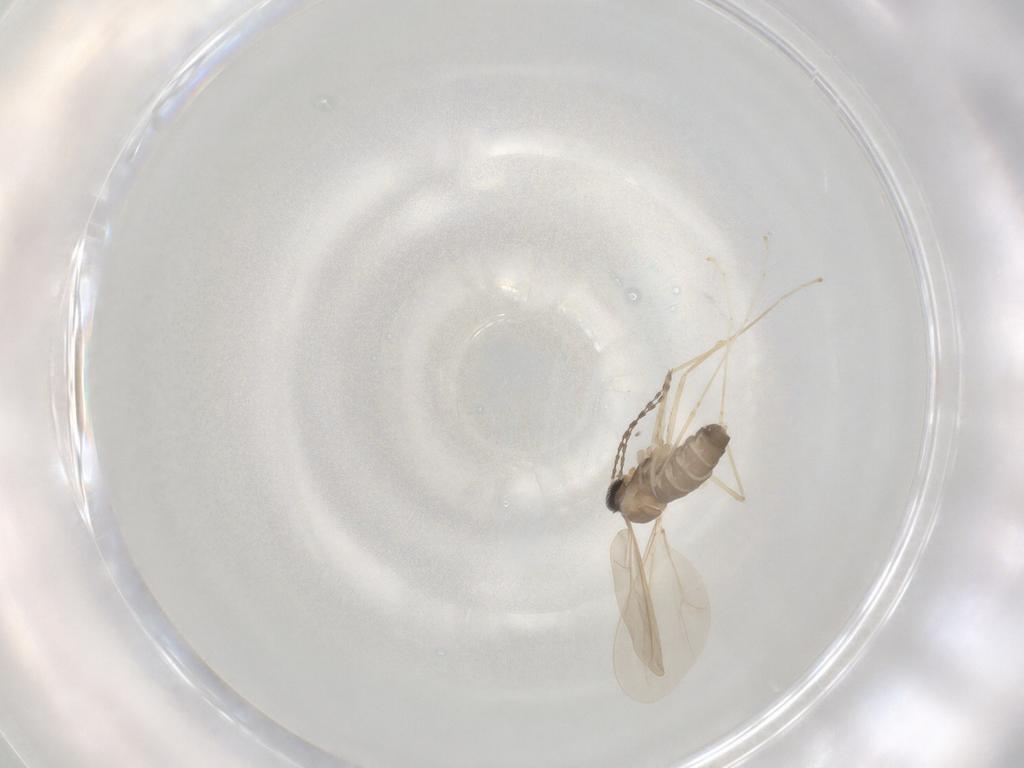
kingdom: Animalia
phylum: Arthropoda
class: Insecta
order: Diptera
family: Cecidomyiidae
